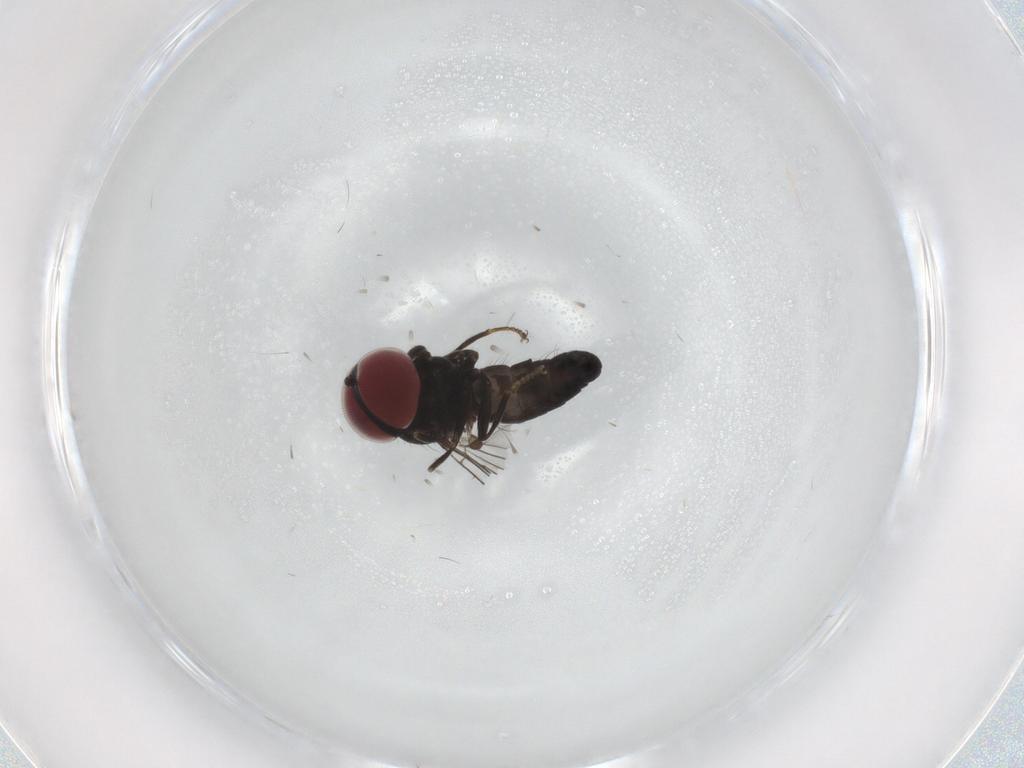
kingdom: Animalia
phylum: Arthropoda
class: Insecta
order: Diptera
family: Pipunculidae
